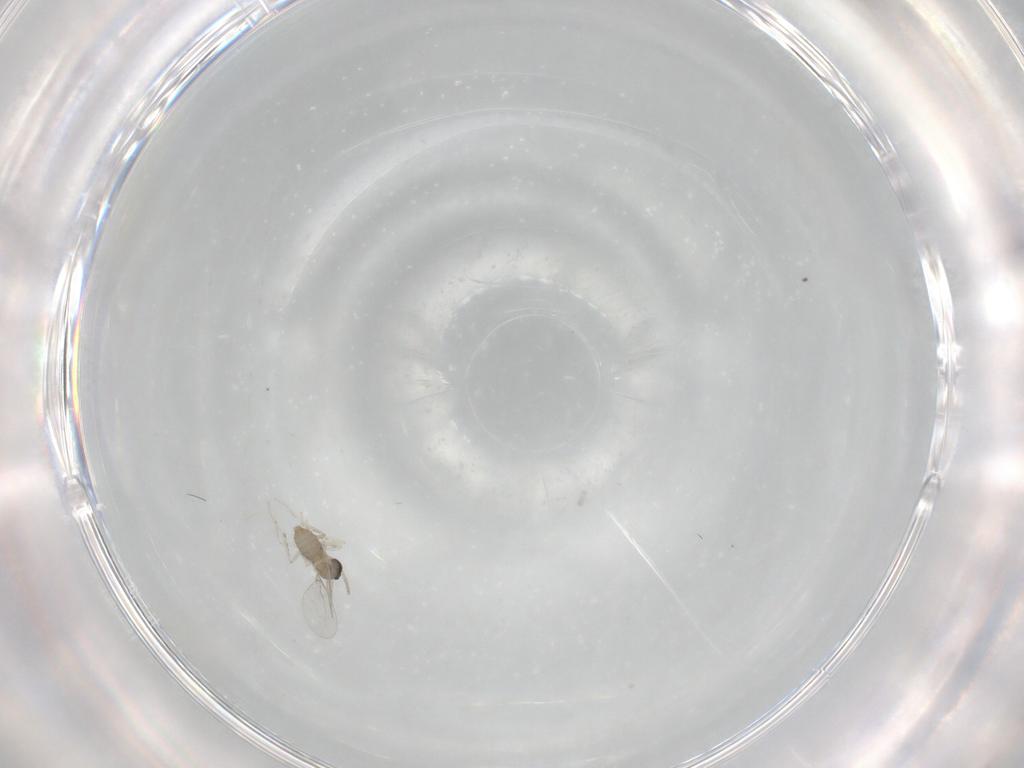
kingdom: Animalia
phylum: Arthropoda
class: Insecta
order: Diptera
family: Cecidomyiidae
